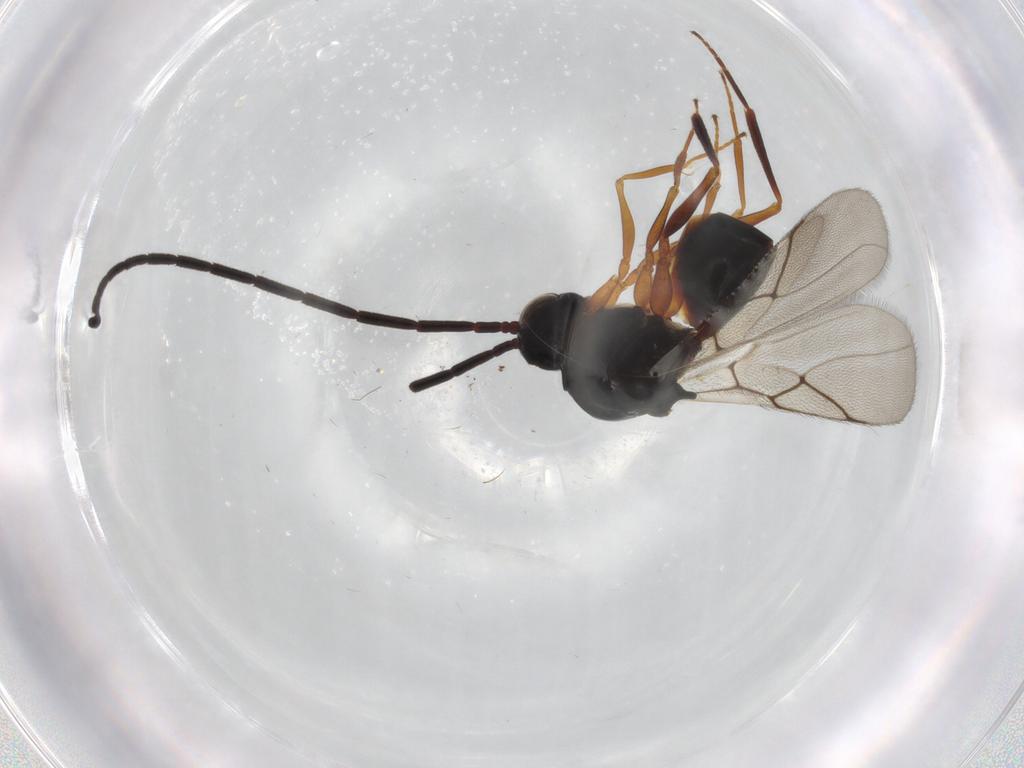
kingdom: Animalia
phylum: Arthropoda
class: Insecta
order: Hymenoptera
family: Figitidae
